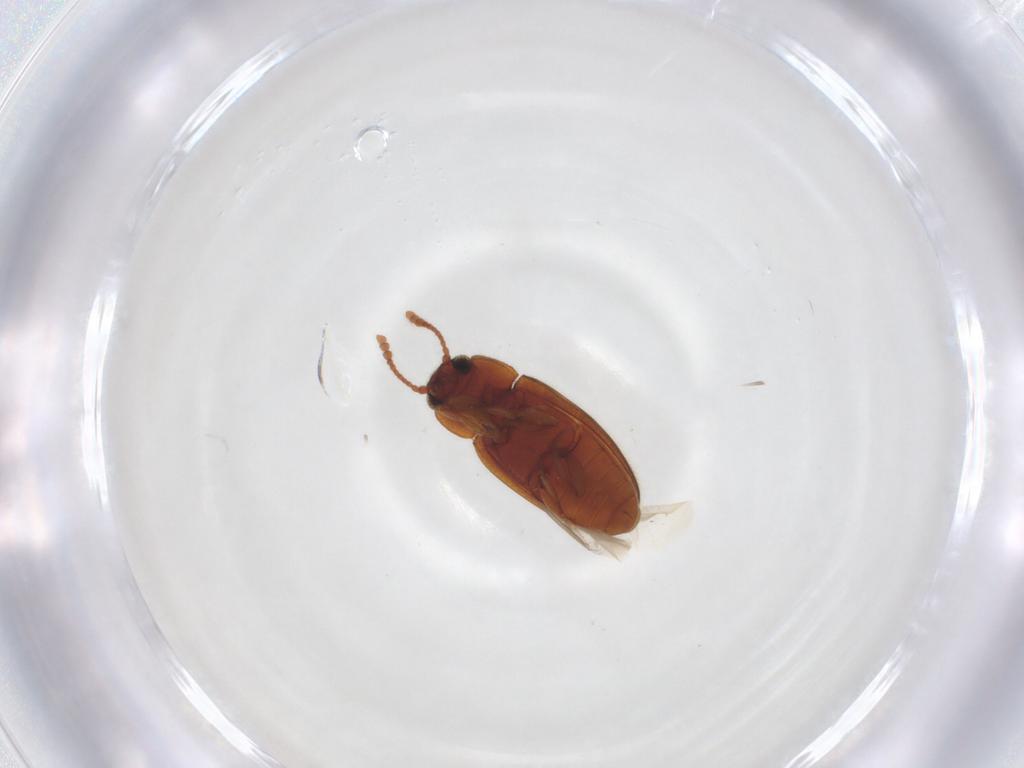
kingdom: Animalia
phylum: Arthropoda
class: Insecta
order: Coleoptera
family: Erotylidae
